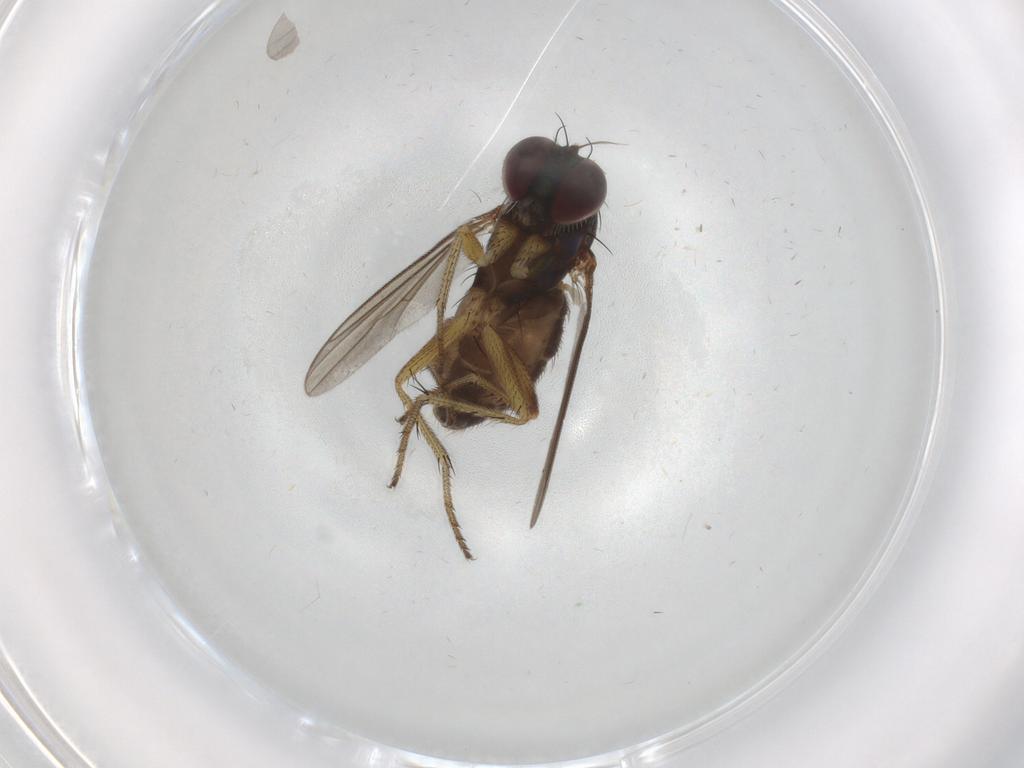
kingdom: Animalia
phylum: Arthropoda
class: Insecta
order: Diptera
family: Dolichopodidae
